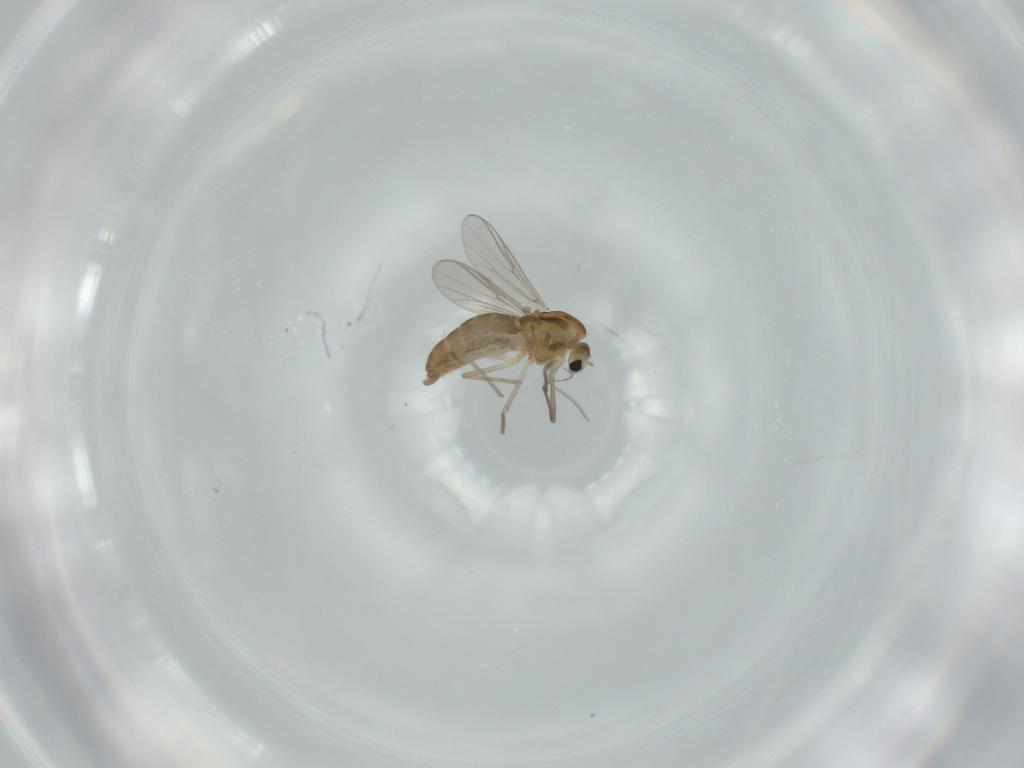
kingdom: Animalia
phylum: Arthropoda
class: Insecta
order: Diptera
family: Chironomidae
